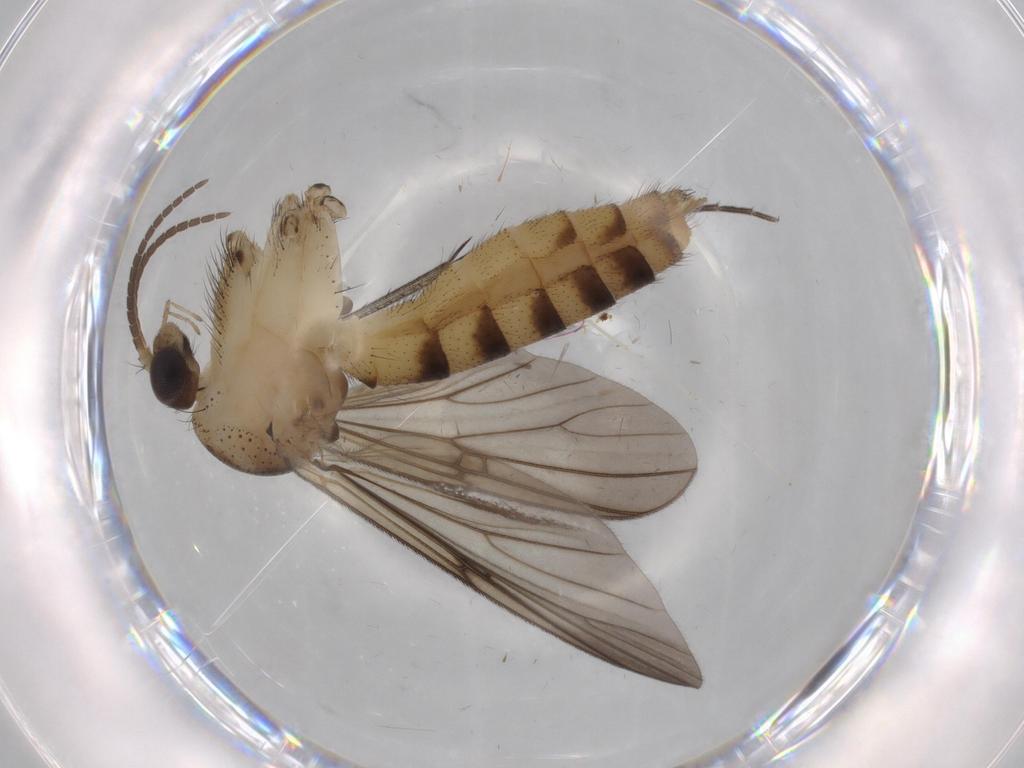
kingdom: Animalia
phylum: Arthropoda
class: Insecta
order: Diptera
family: Mycetophilidae
